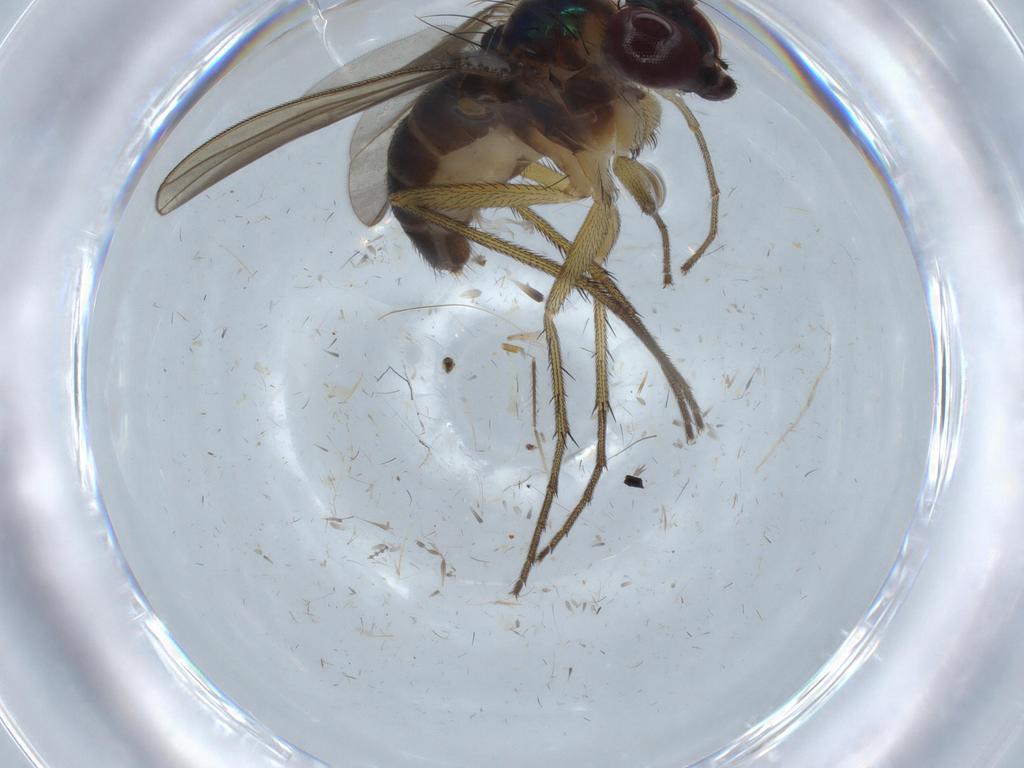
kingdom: Animalia
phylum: Arthropoda
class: Insecta
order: Diptera
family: Dolichopodidae
